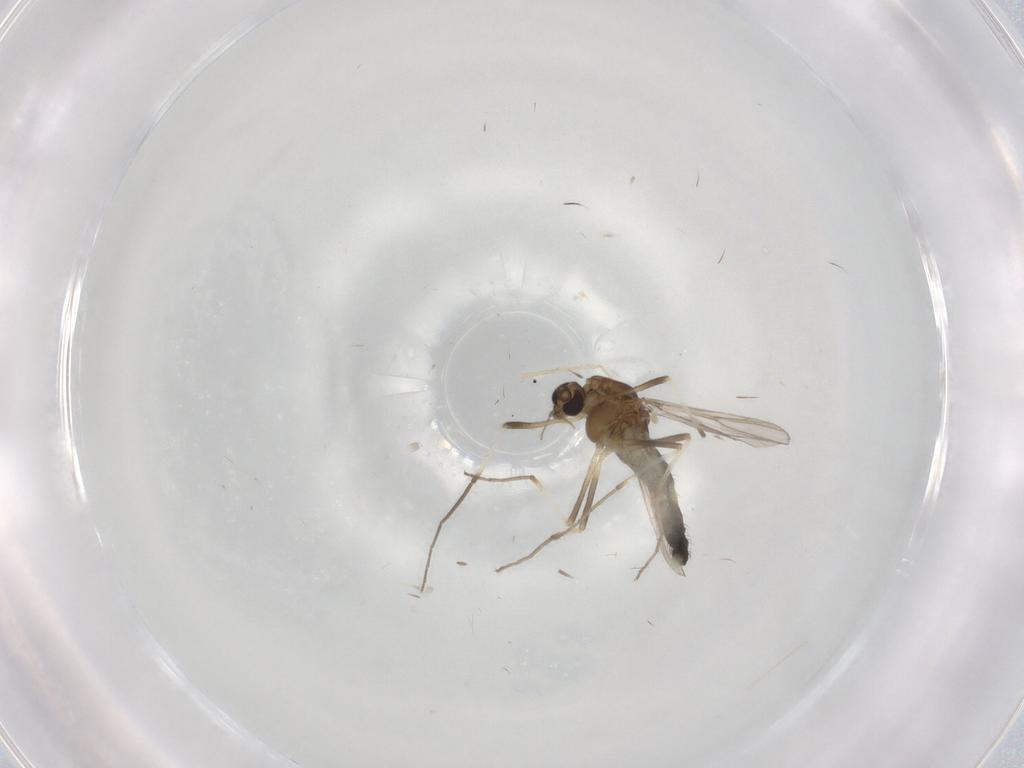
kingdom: Animalia
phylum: Arthropoda
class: Insecta
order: Diptera
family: Chironomidae
